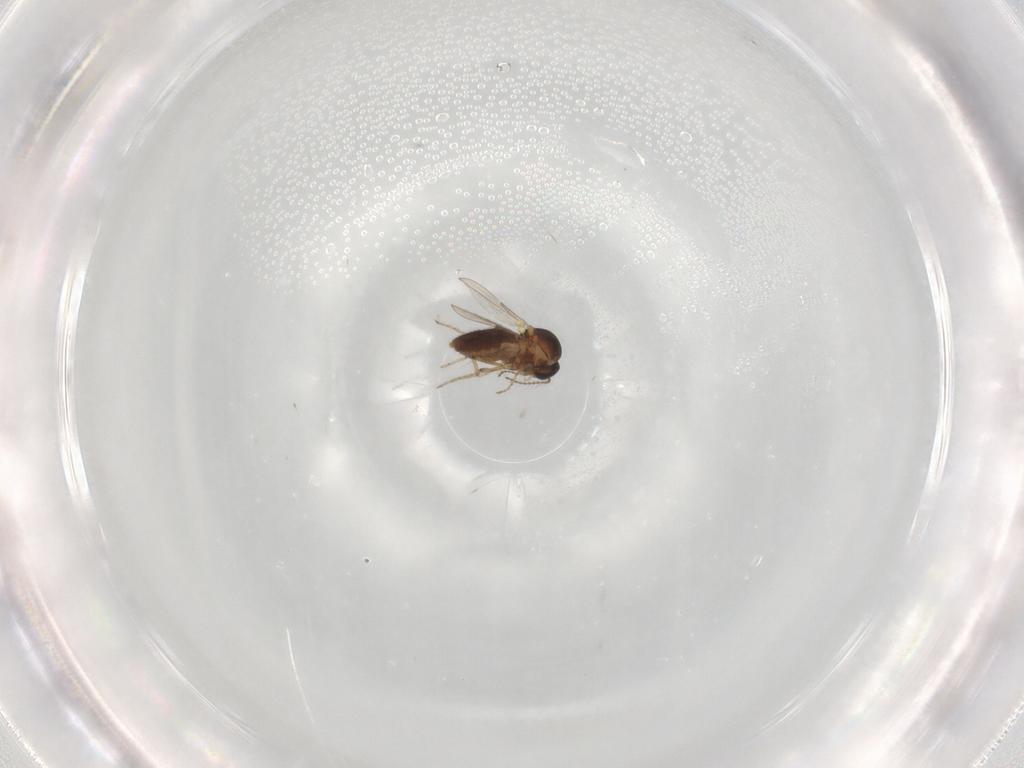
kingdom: Animalia
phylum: Arthropoda
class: Insecta
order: Diptera
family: Ceratopogonidae
